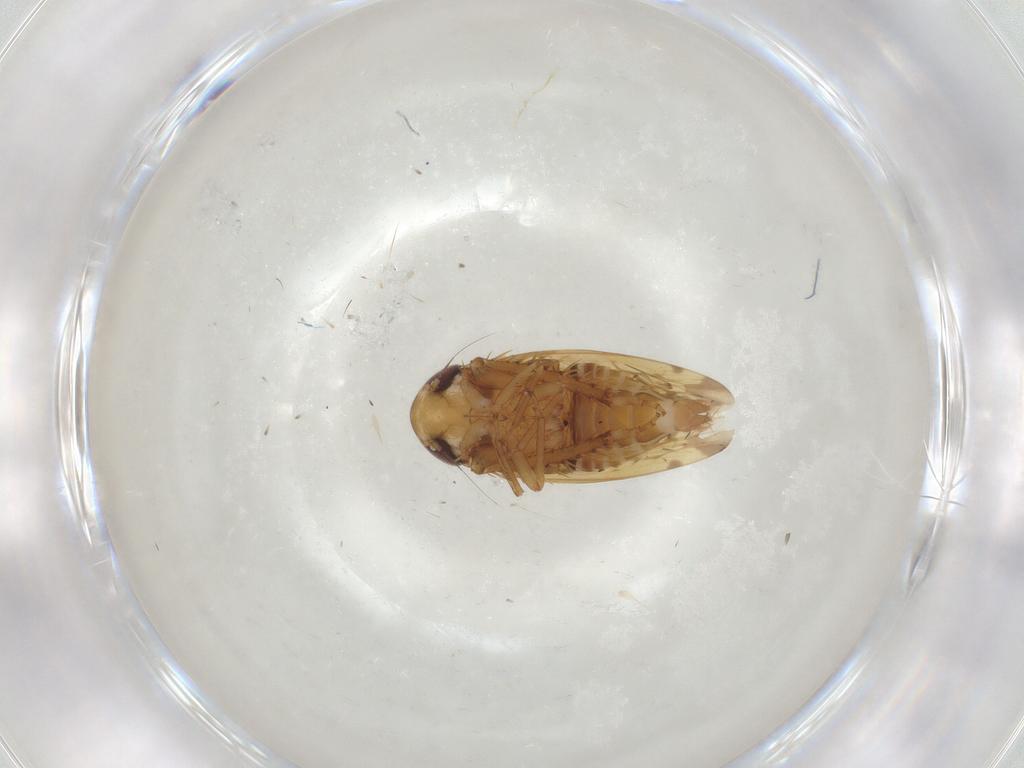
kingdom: Animalia
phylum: Arthropoda
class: Insecta
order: Hemiptera
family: Cicadellidae
